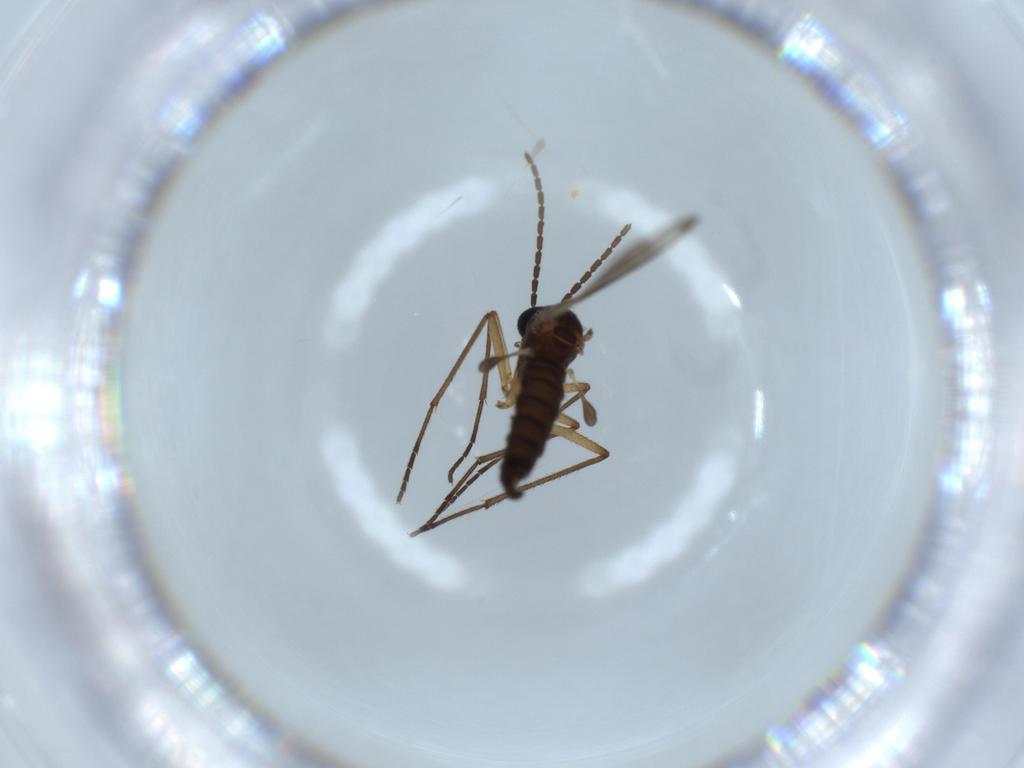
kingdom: Animalia
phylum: Arthropoda
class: Insecta
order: Diptera
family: Sciaridae
